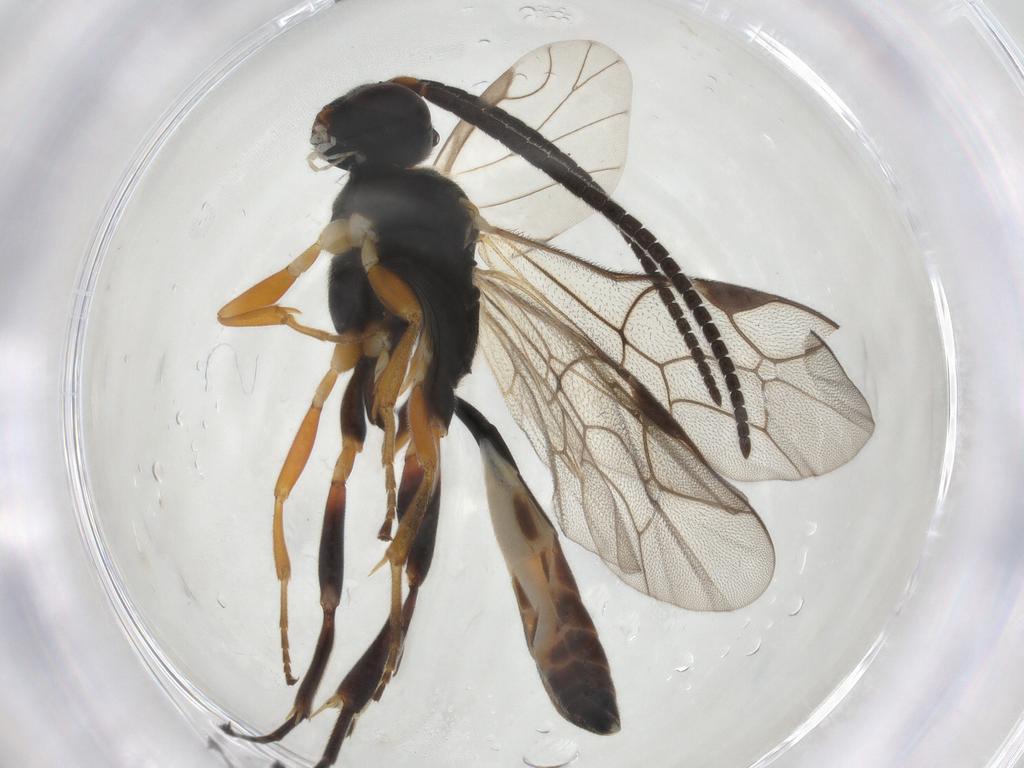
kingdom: Animalia
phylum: Arthropoda
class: Insecta
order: Hymenoptera
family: Ichneumonidae
